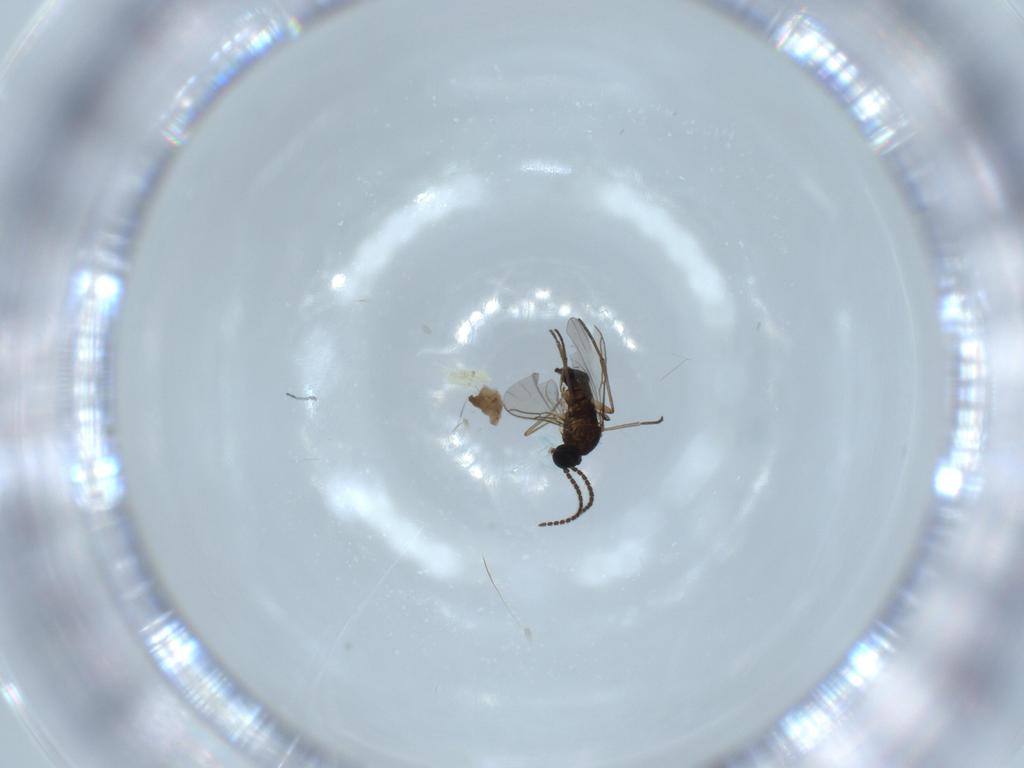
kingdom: Animalia
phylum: Arthropoda
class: Insecta
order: Diptera
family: Sciaridae
